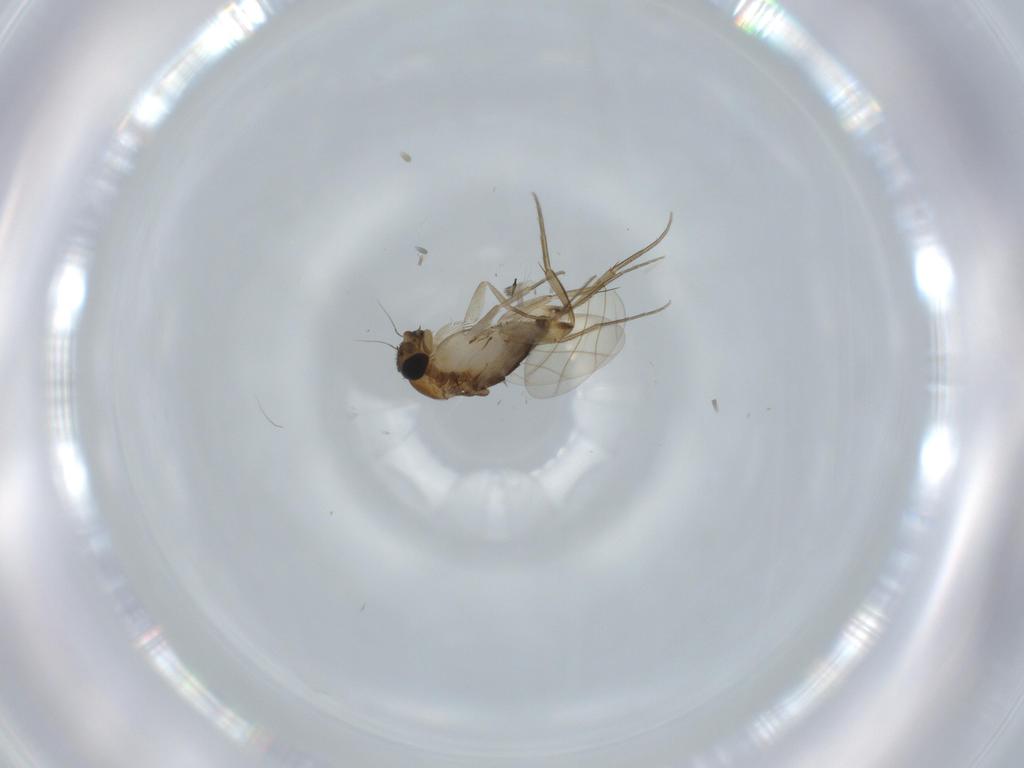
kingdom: Animalia
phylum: Arthropoda
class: Insecta
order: Diptera
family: Phoridae
